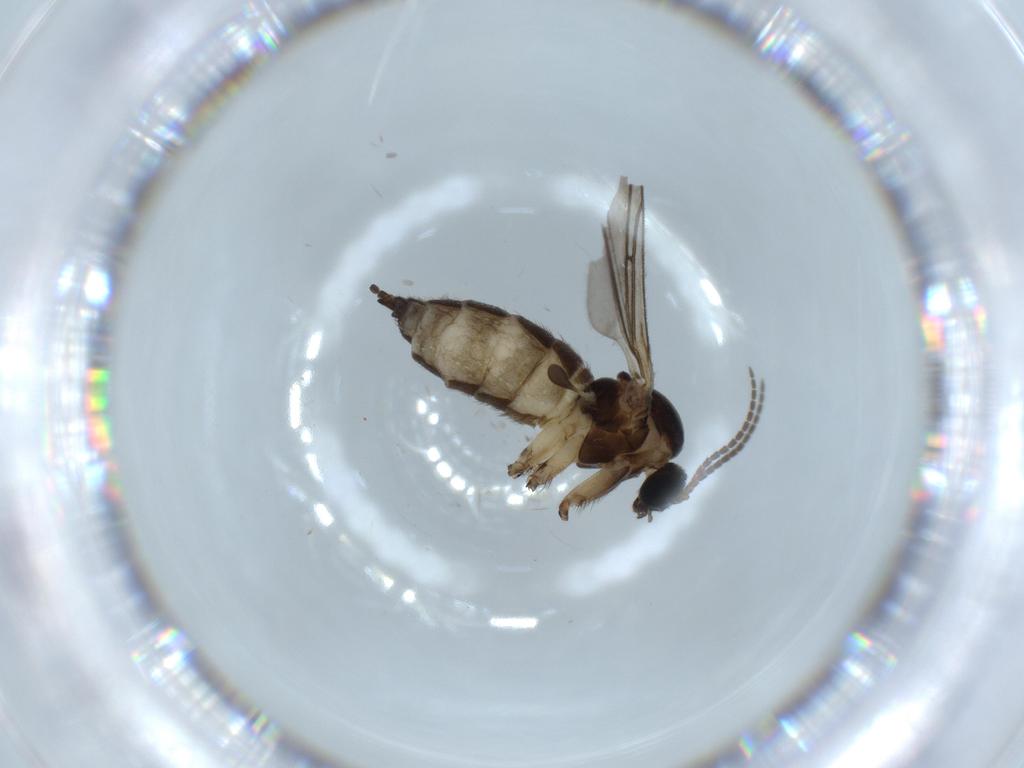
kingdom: Animalia
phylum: Arthropoda
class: Insecta
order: Diptera
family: Sciaridae
